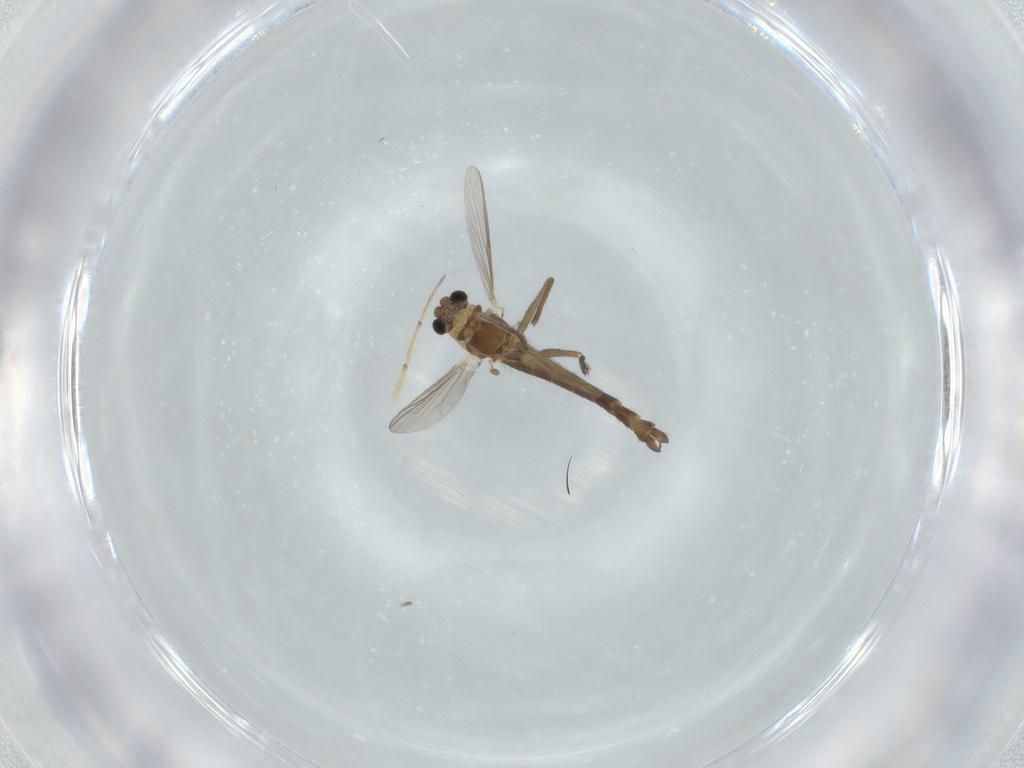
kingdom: Animalia
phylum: Arthropoda
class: Insecta
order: Diptera
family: Chironomidae
